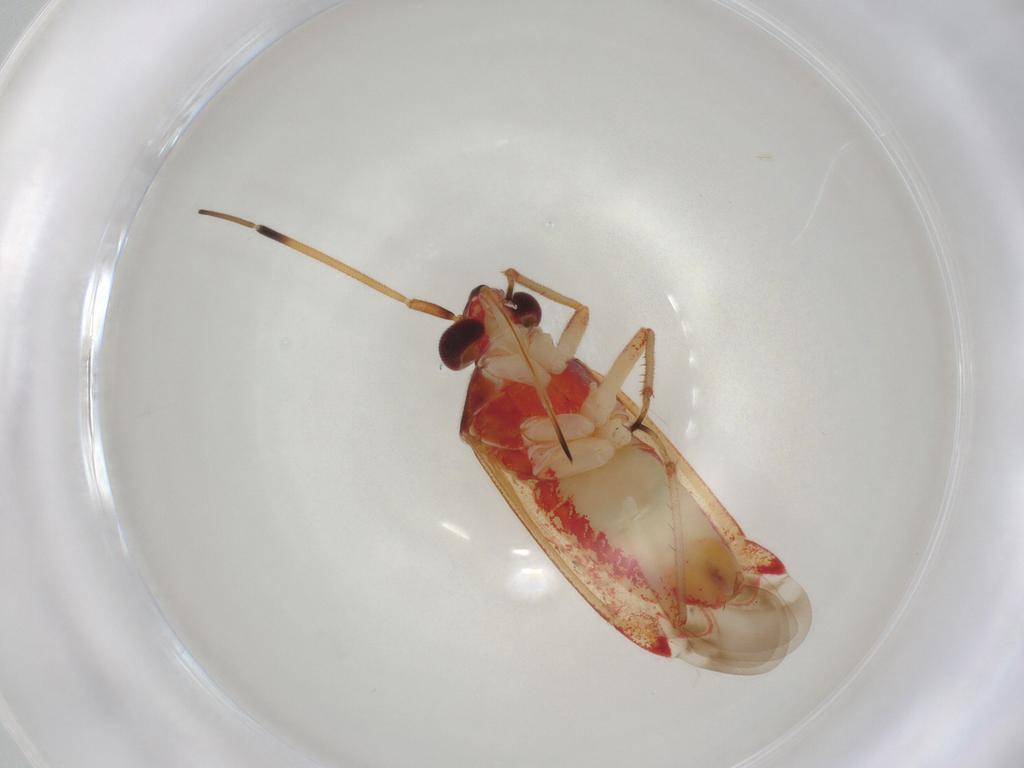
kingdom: Animalia
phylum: Arthropoda
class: Insecta
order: Hemiptera
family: Miridae
